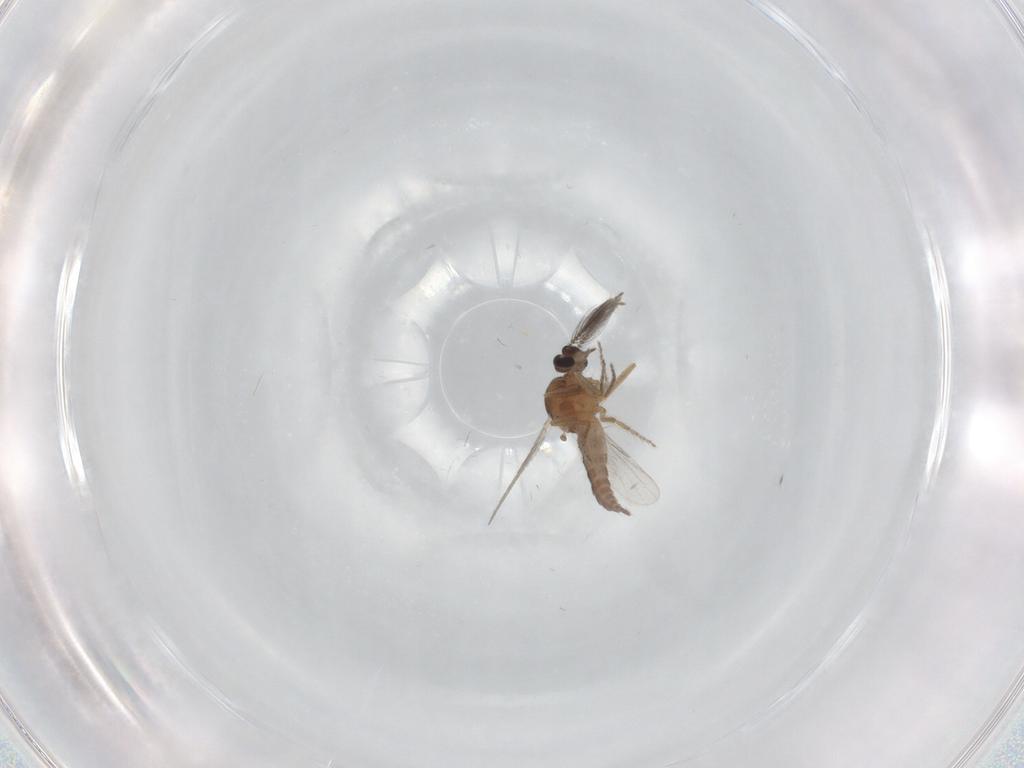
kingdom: Animalia
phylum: Arthropoda
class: Insecta
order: Diptera
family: Ceratopogonidae
